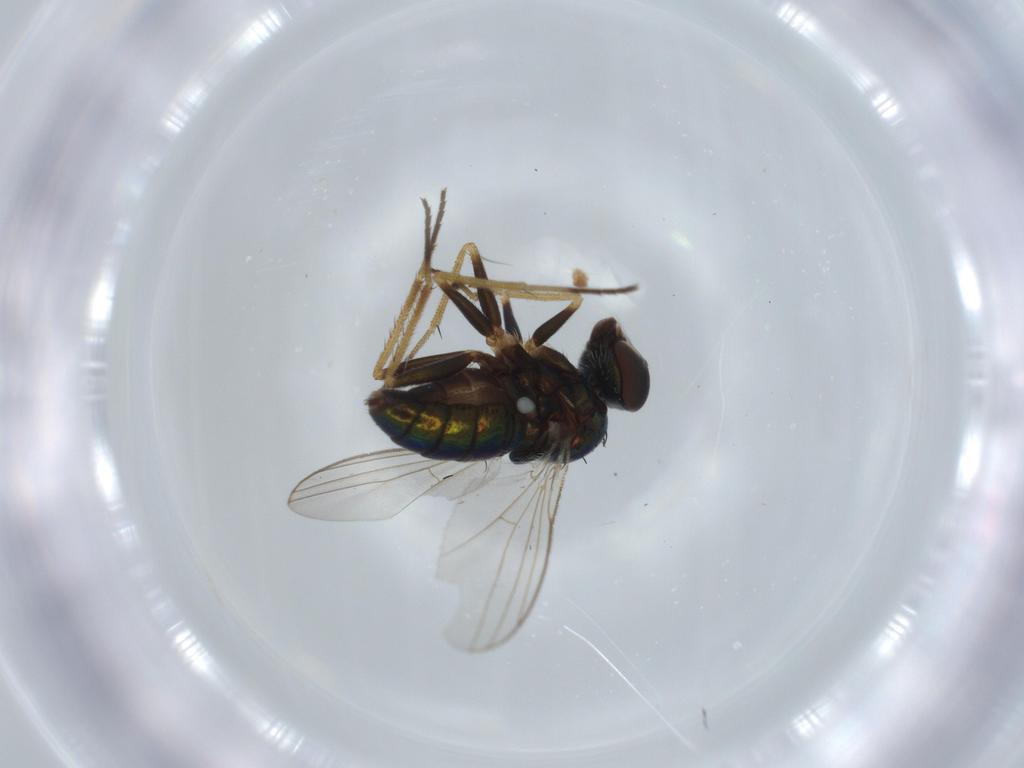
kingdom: Animalia
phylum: Arthropoda
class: Insecta
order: Diptera
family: Dolichopodidae
